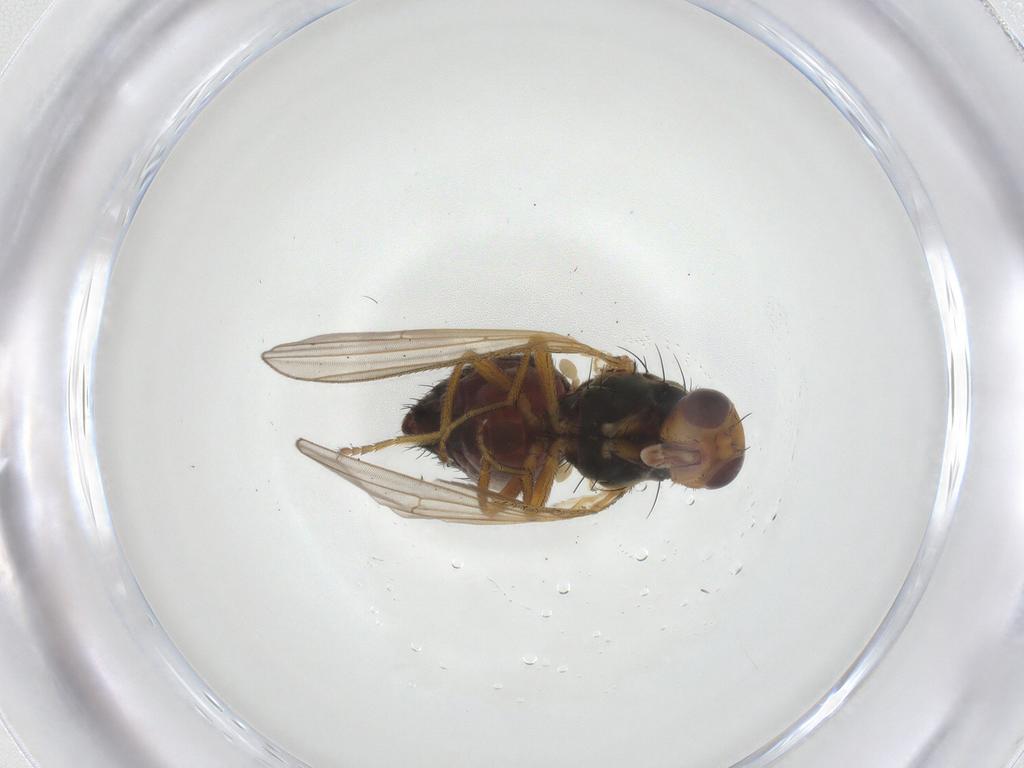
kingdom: Animalia
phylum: Arthropoda
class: Insecta
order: Diptera
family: Heleomyzidae
